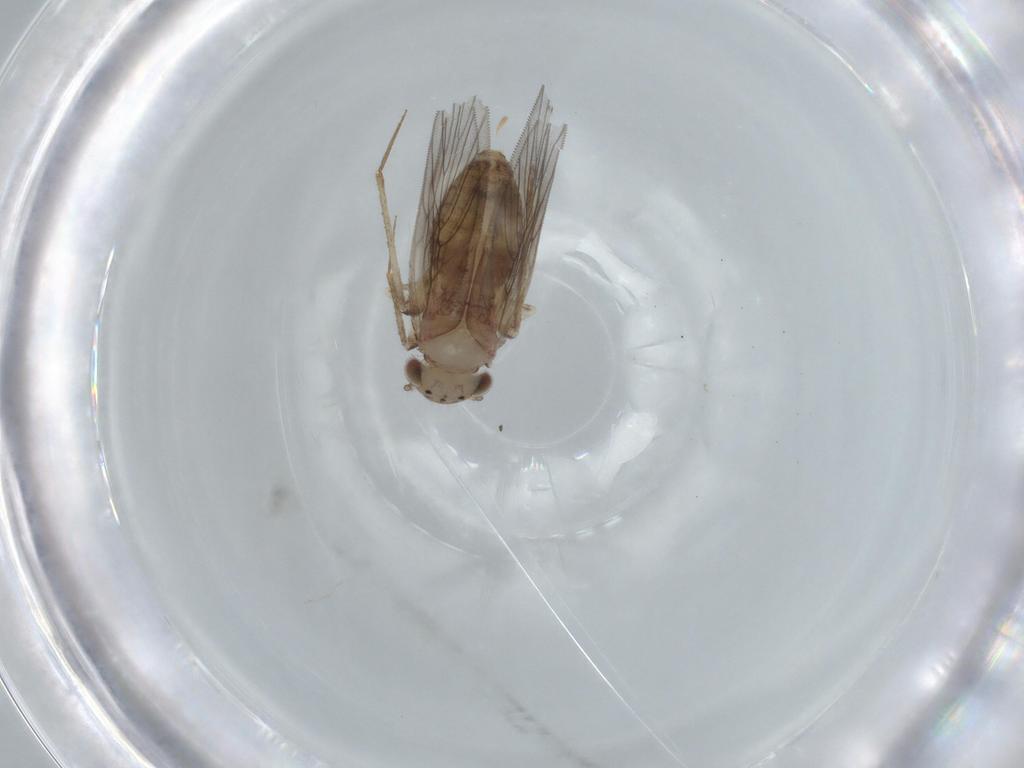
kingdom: Animalia
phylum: Arthropoda
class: Insecta
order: Psocodea
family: Lepidopsocidae
